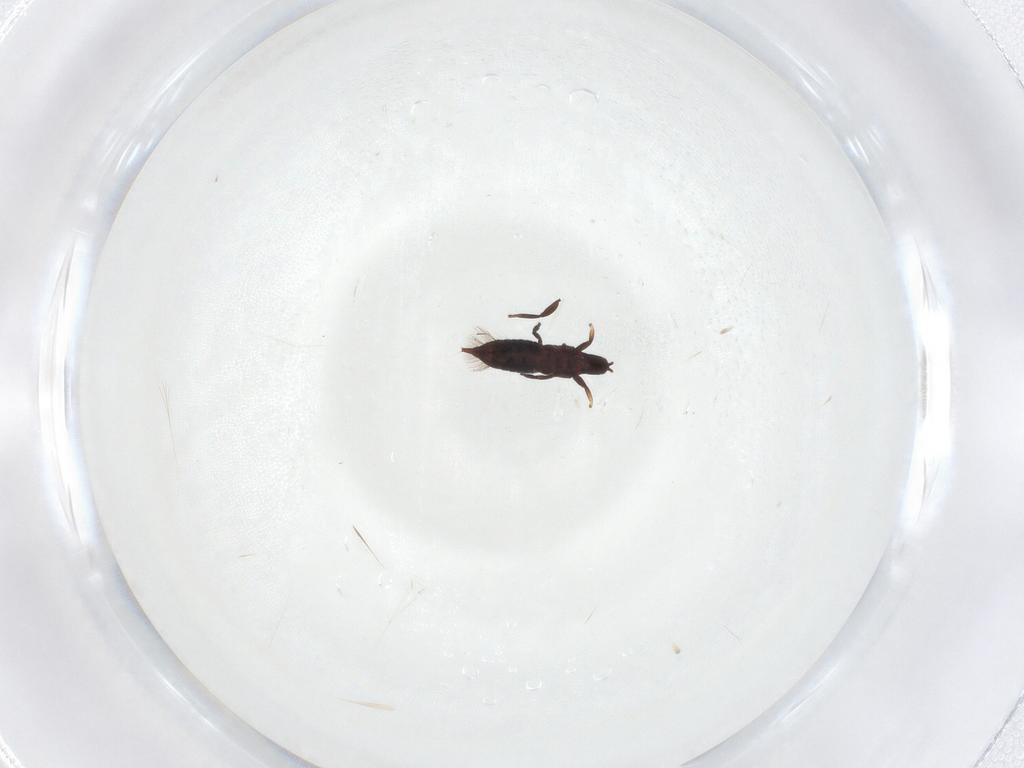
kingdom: Animalia
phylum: Arthropoda
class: Insecta
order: Thysanoptera
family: Phlaeothripidae
